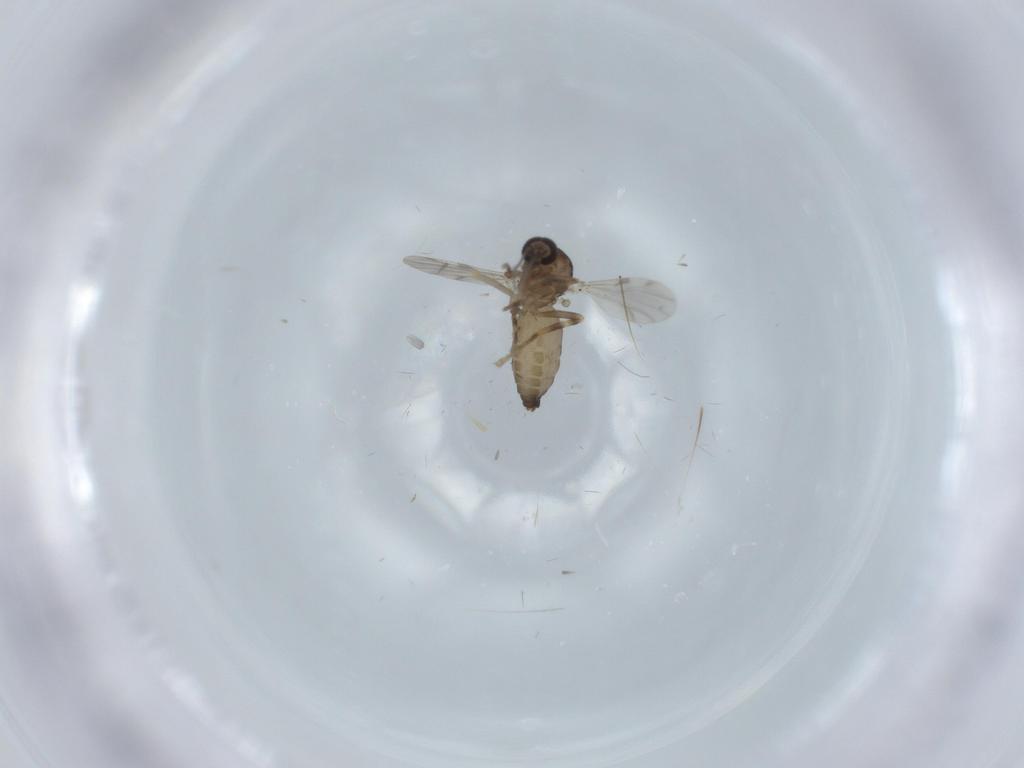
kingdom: Animalia
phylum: Arthropoda
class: Insecta
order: Diptera
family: Ceratopogonidae
